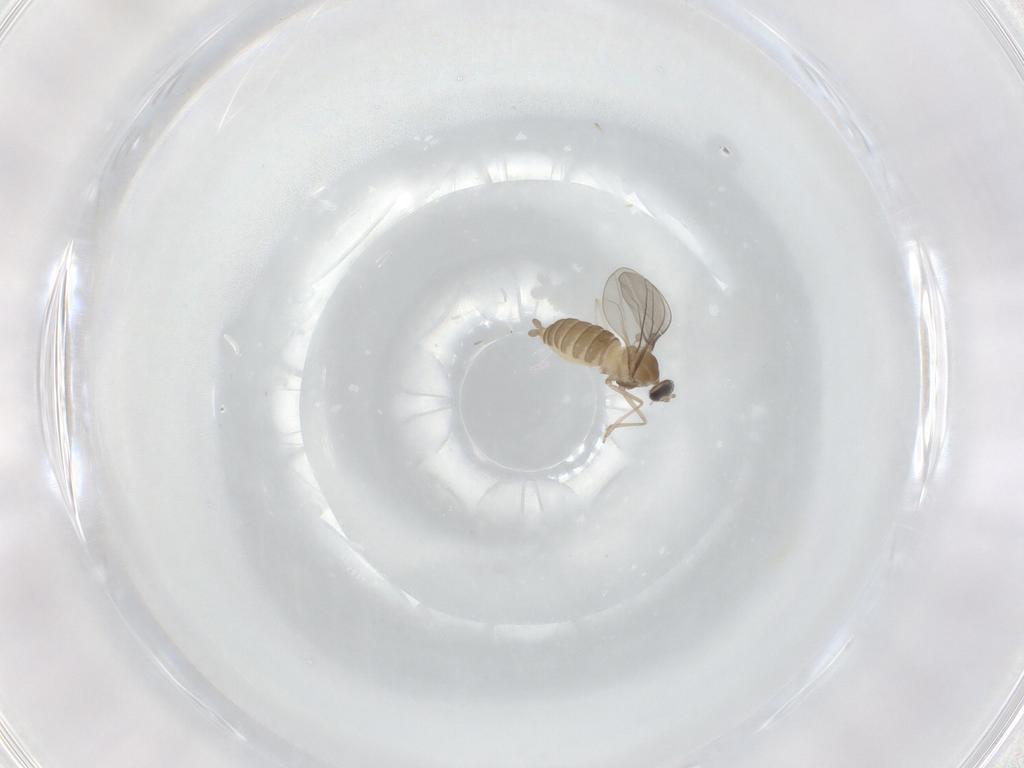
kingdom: Animalia
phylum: Arthropoda
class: Insecta
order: Diptera
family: Cecidomyiidae
